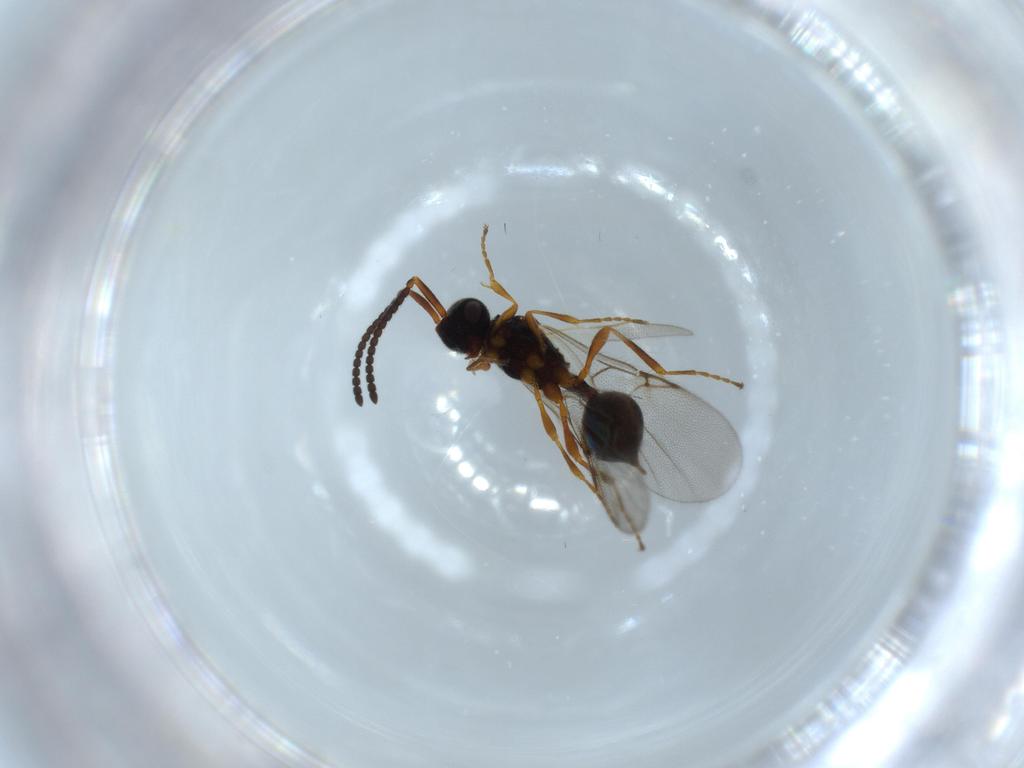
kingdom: Animalia
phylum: Arthropoda
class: Insecta
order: Hymenoptera
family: Diapriidae
